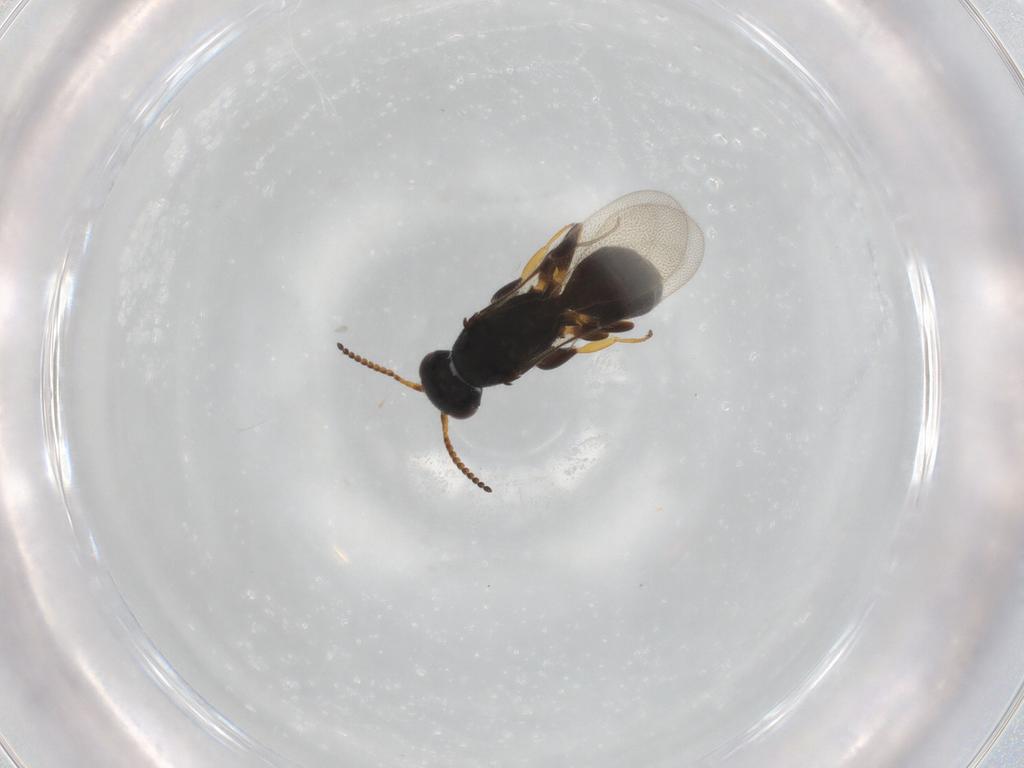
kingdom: Animalia
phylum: Arthropoda
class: Insecta
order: Hymenoptera
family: Bethylidae
